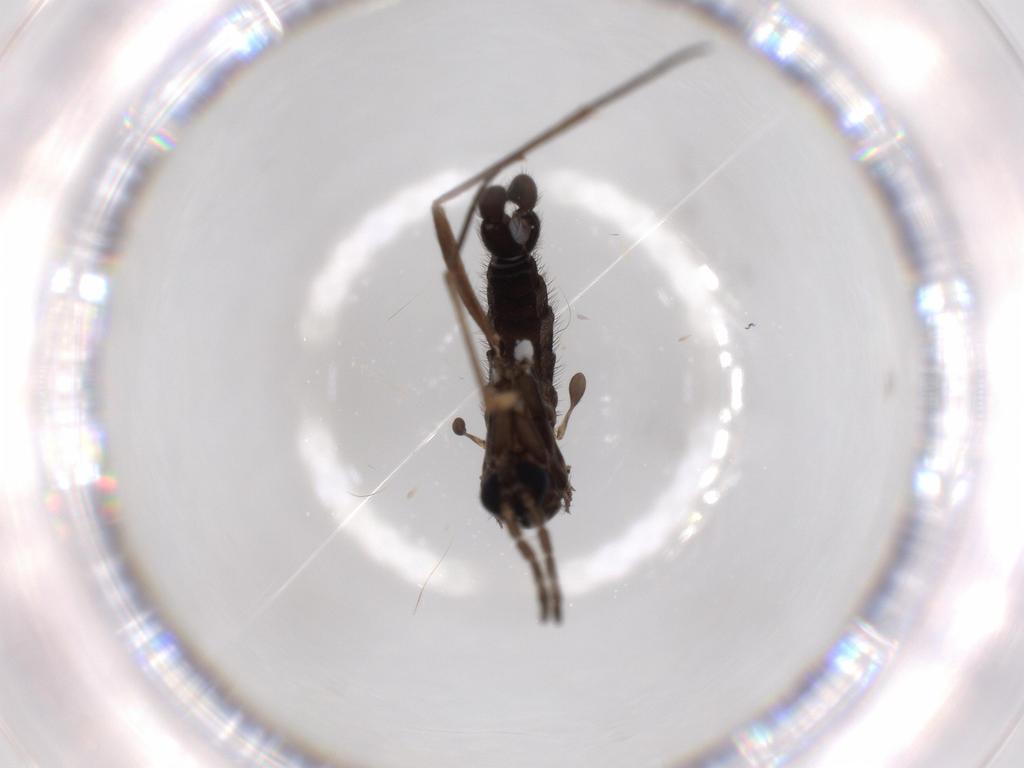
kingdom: Animalia
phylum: Arthropoda
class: Insecta
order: Diptera
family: Sciaridae
